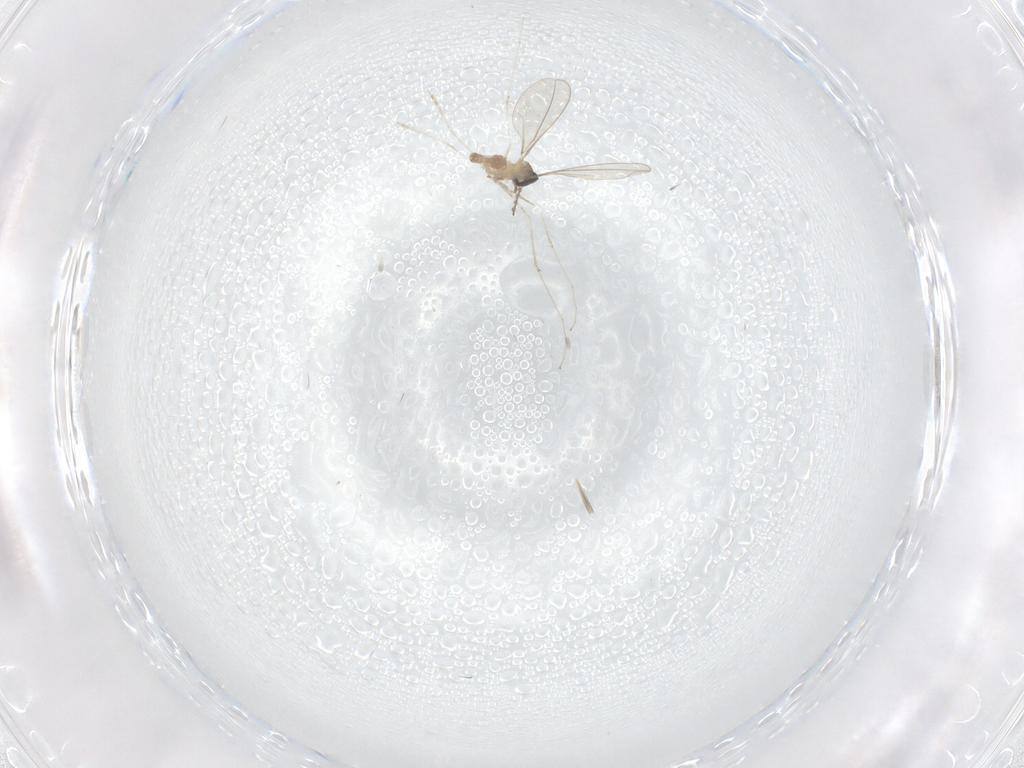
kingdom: Animalia
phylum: Arthropoda
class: Insecta
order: Diptera
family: Cecidomyiidae
